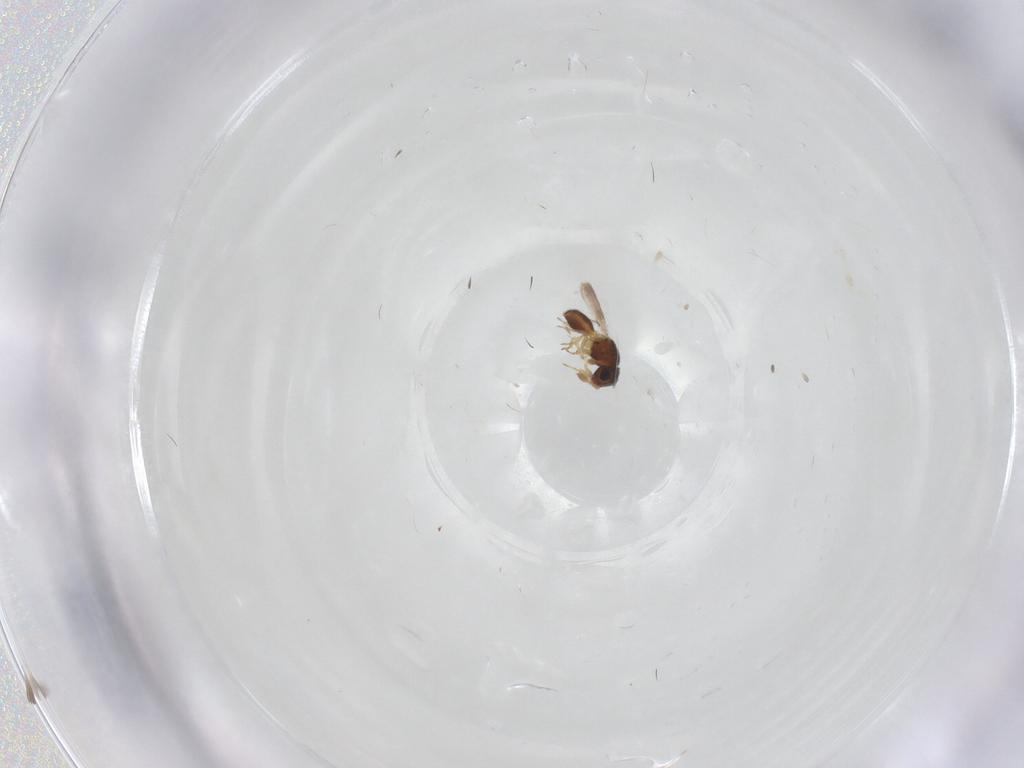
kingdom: Animalia
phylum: Arthropoda
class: Insecta
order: Hymenoptera
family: Scelionidae
